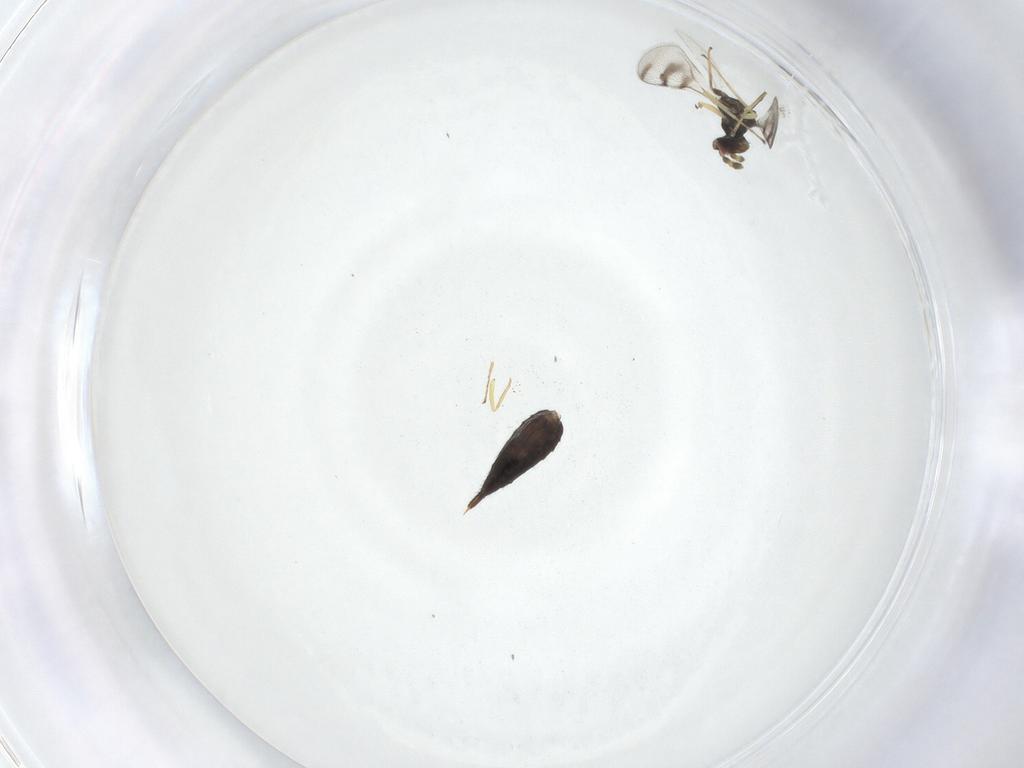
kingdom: Animalia
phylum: Arthropoda
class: Insecta
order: Hymenoptera
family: Eulophidae
